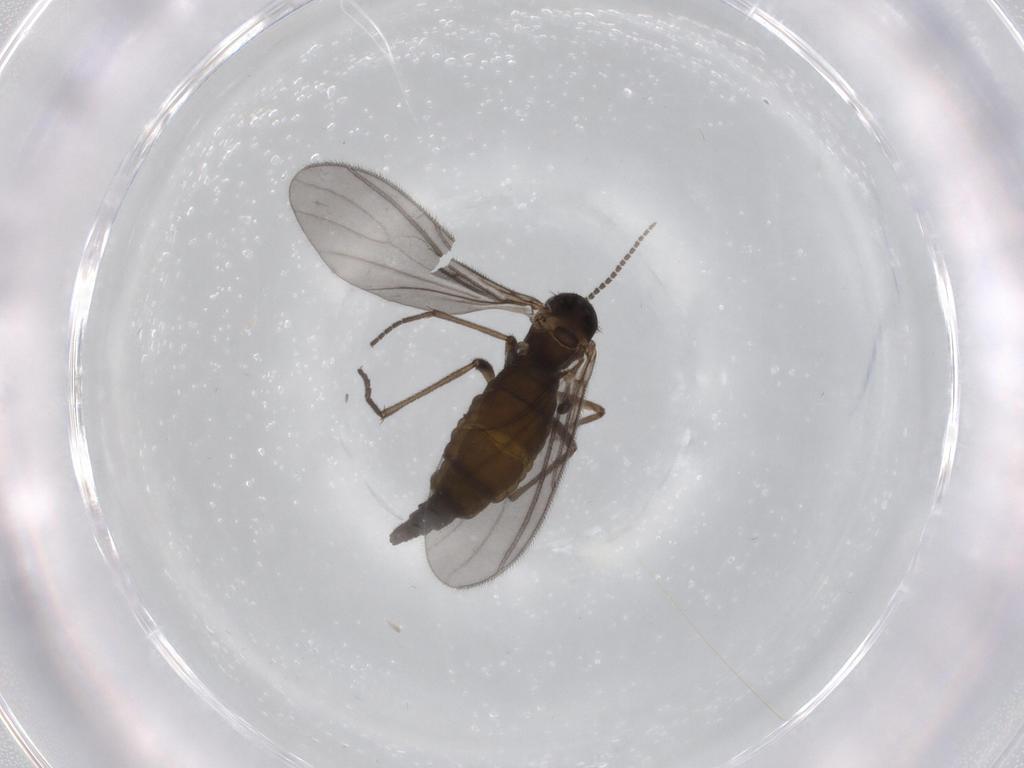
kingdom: Animalia
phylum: Arthropoda
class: Insecta
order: Diptera
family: Sciaridae
